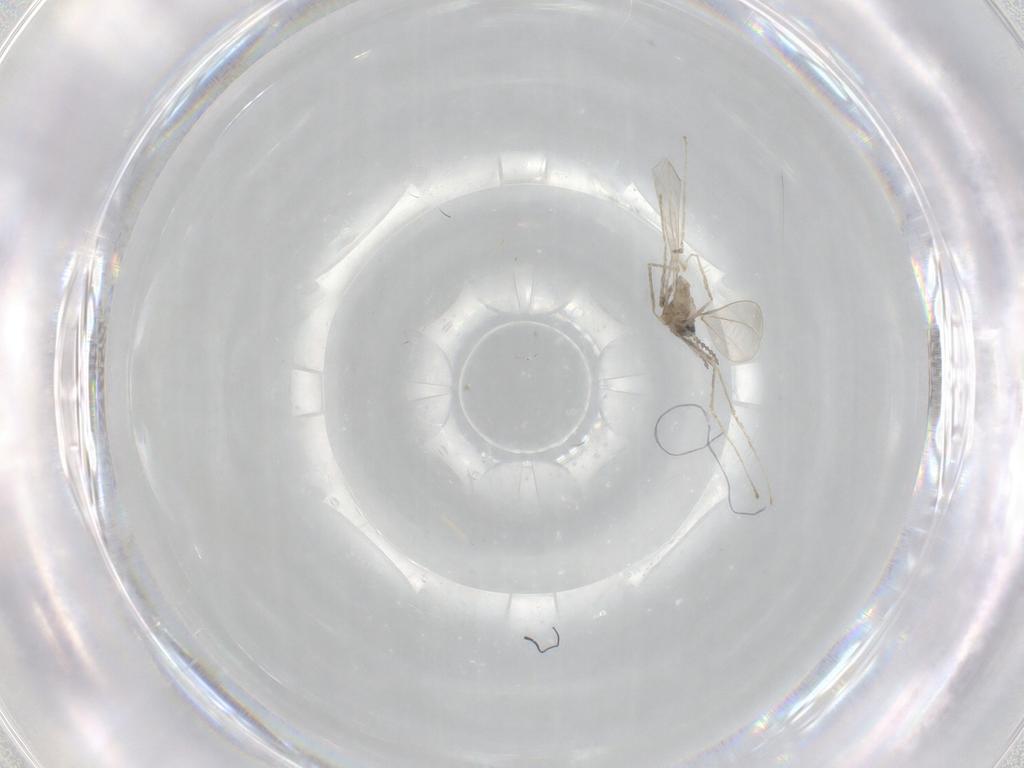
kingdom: Animalia
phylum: Arthropoda
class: Insecta
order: Diptera
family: Cecidomyiidae
